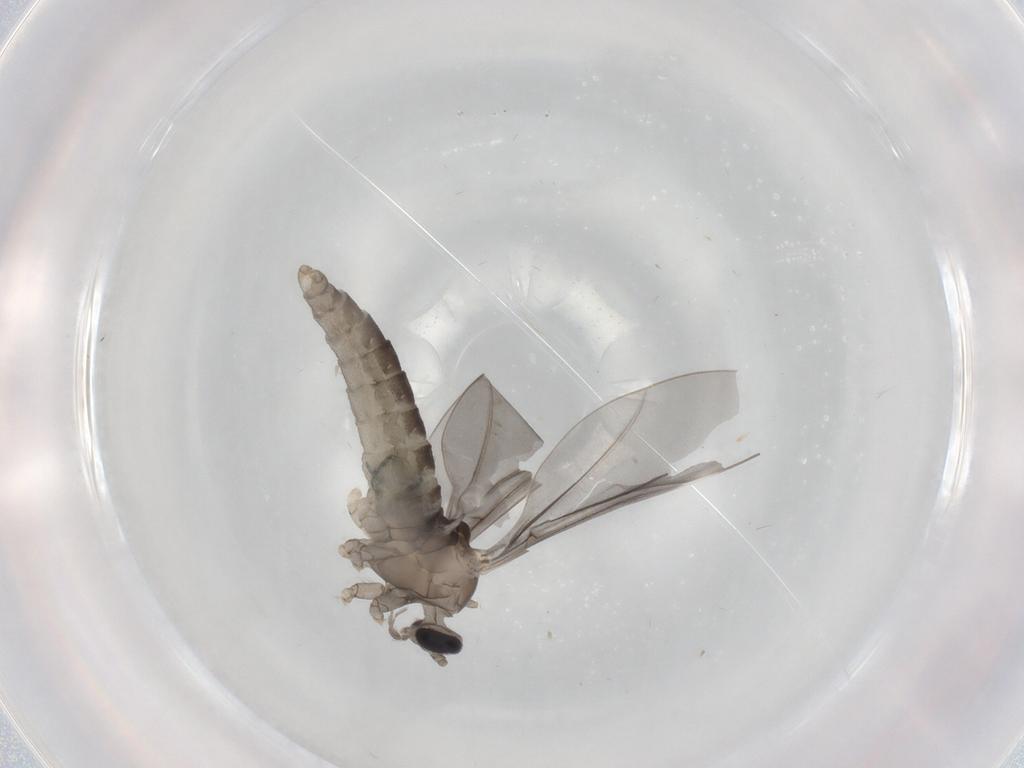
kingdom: Animalia
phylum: Arthropoda
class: Insecta
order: Diptera
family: Cecidomyiidae
